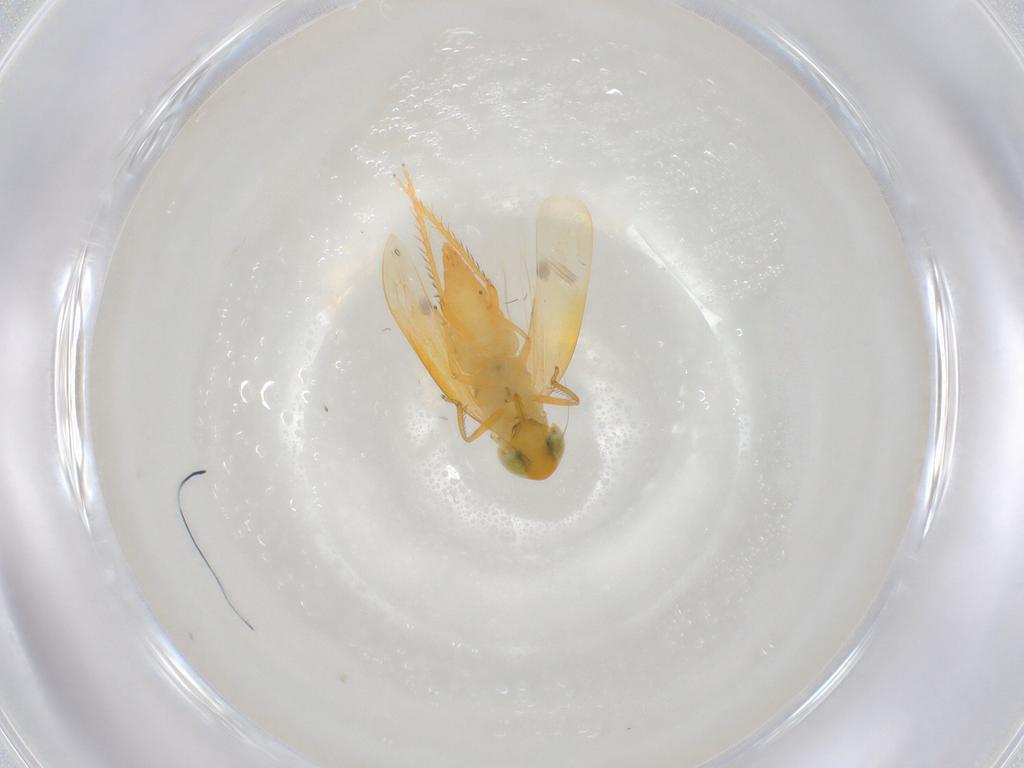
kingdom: Animalia
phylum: Arthropoda
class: Insecta
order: Hemiptera
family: Cicadellidae
